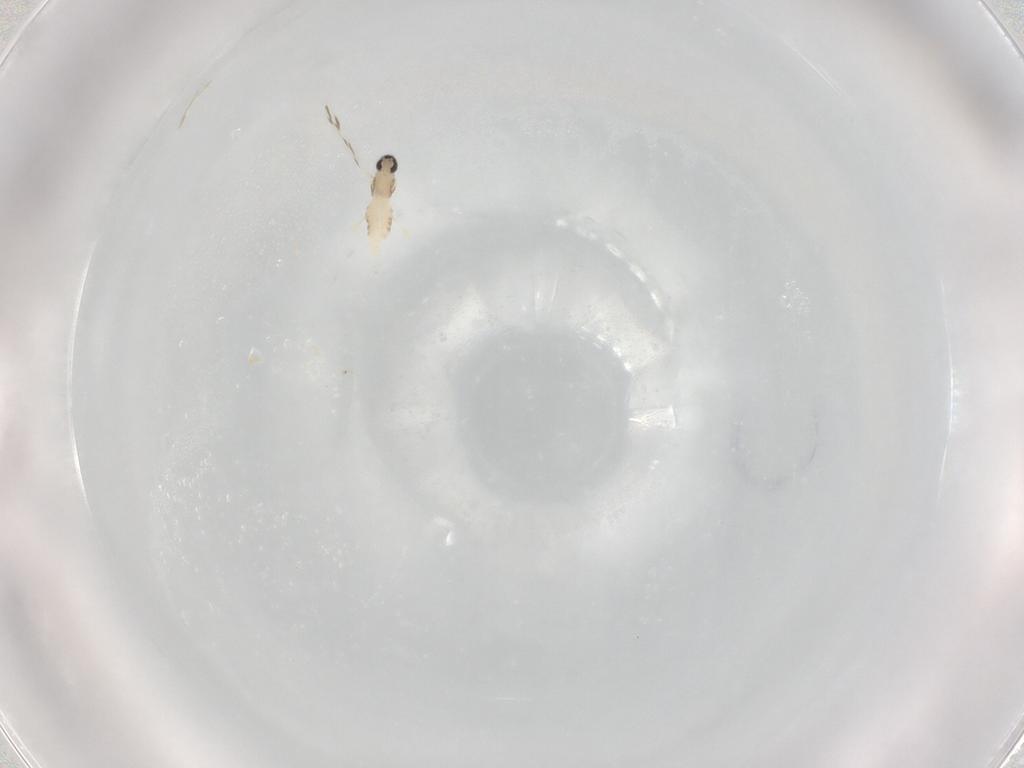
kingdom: Animalia
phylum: Arthropoda
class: Insecta
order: Diptera
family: Cecidomyiidae
